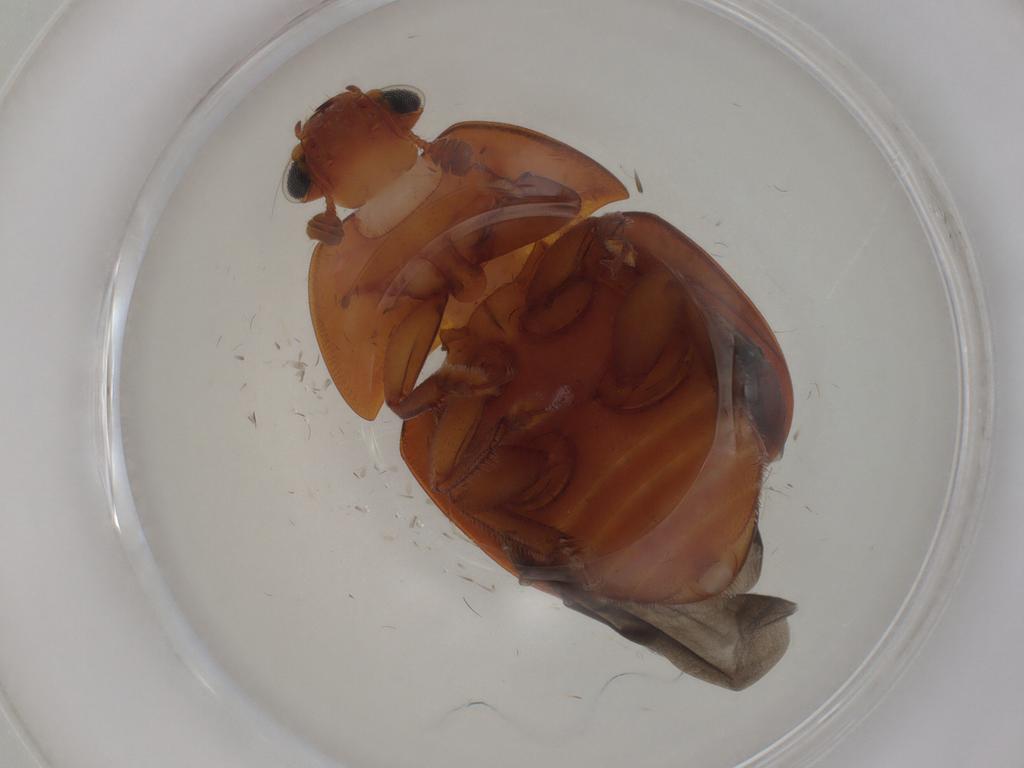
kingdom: Animalia
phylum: Arthropoda
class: Insecta
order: Coleoptera
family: Nitidulidae
